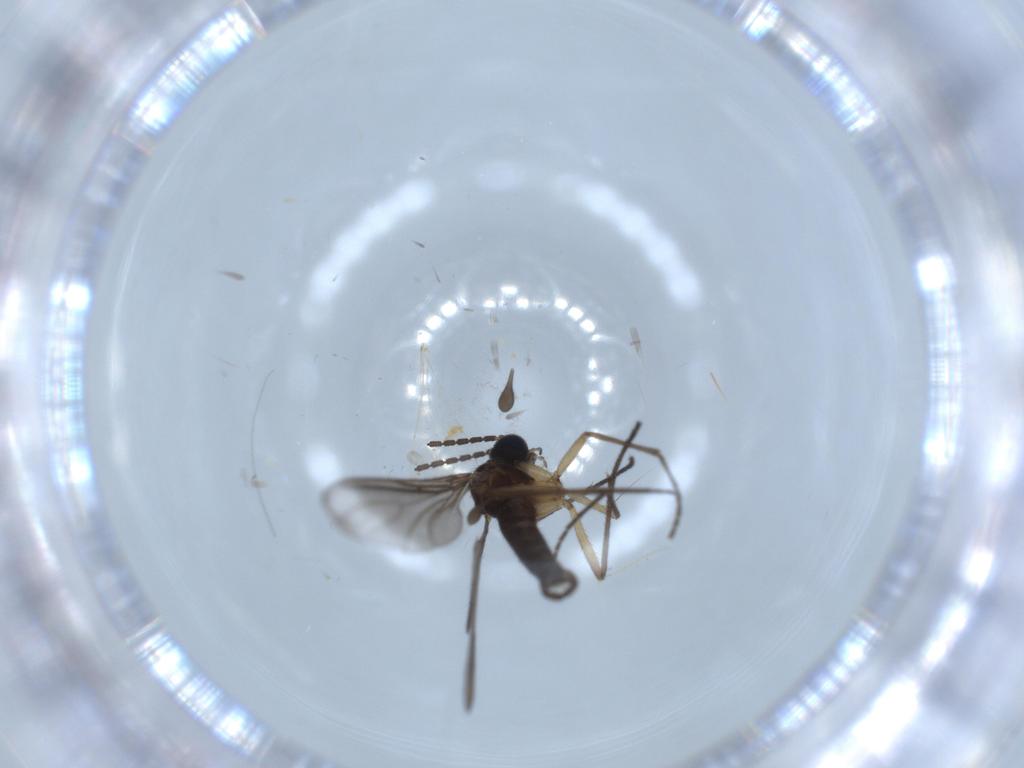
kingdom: Animalia
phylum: Arthropoda
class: Insecta
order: Diptera
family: Cecidomyiidae
